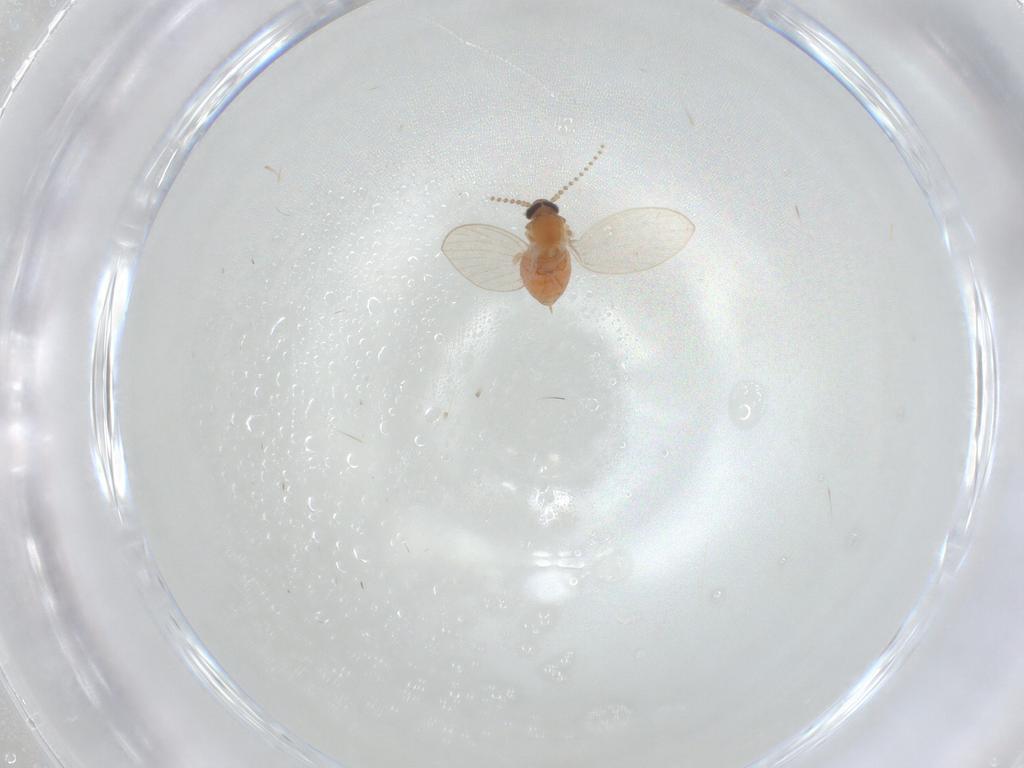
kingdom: Animalia
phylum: Arthropoda
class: Insecta
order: Diptera
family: Psychodidae
